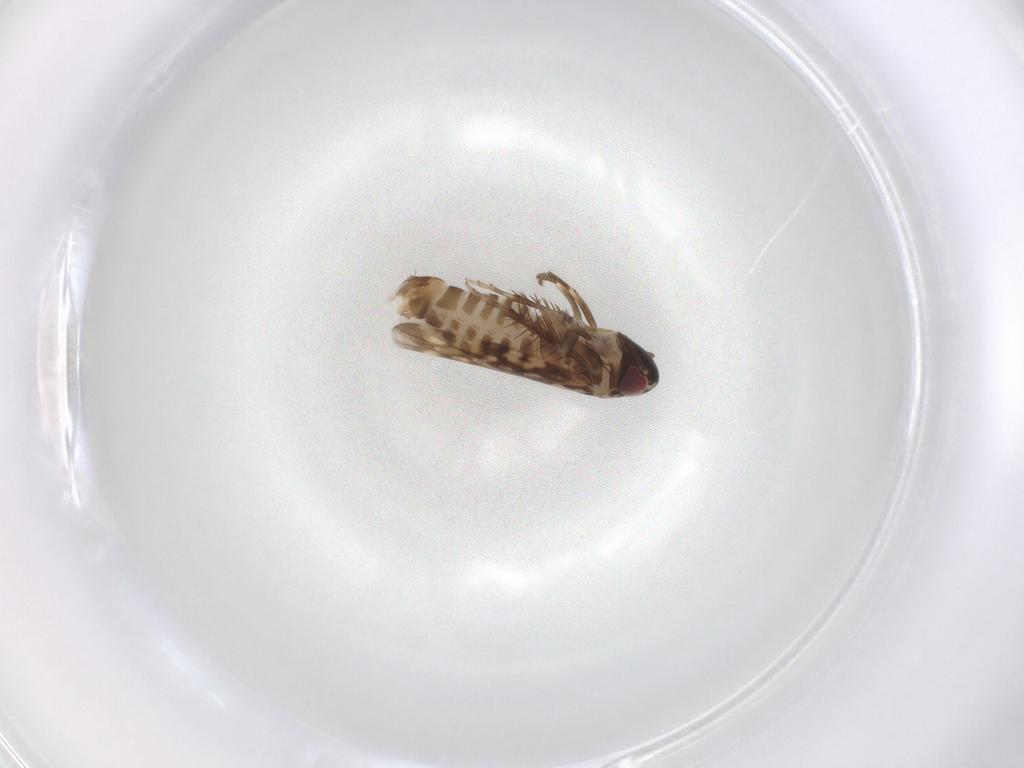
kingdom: Animalia
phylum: Arthropoda
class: Insecta
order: Hemiptera
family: Cicadellidae
